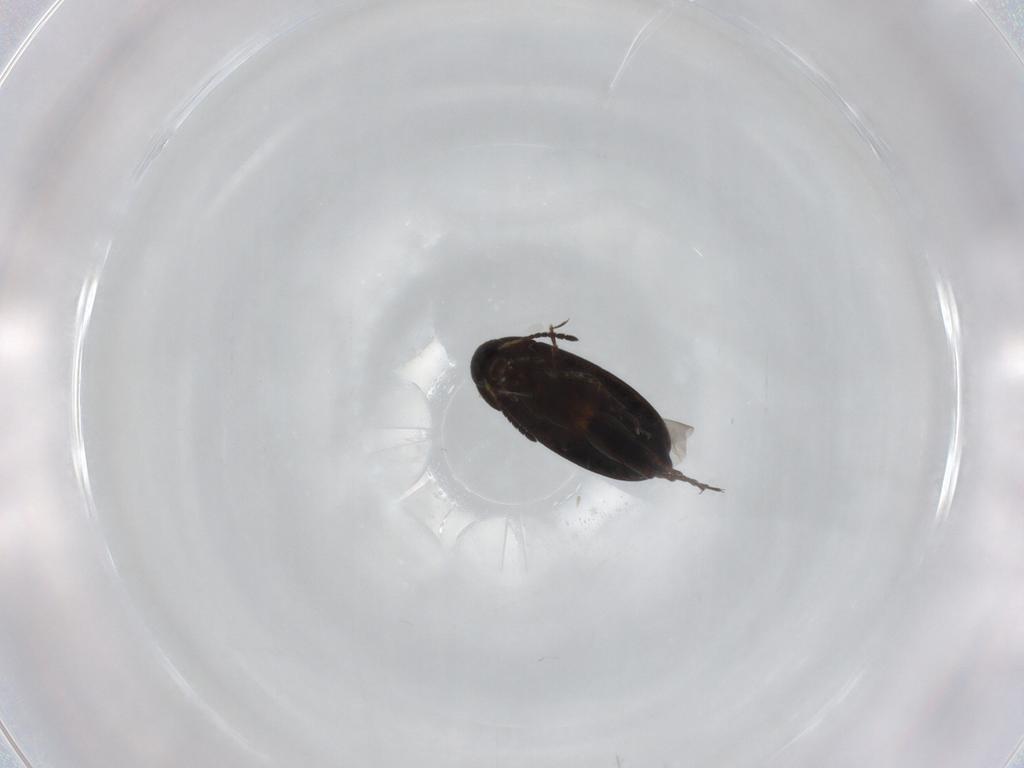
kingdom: Animalia
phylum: Arthropoda
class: Insecta
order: Coleoptera
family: Scraptiidae
